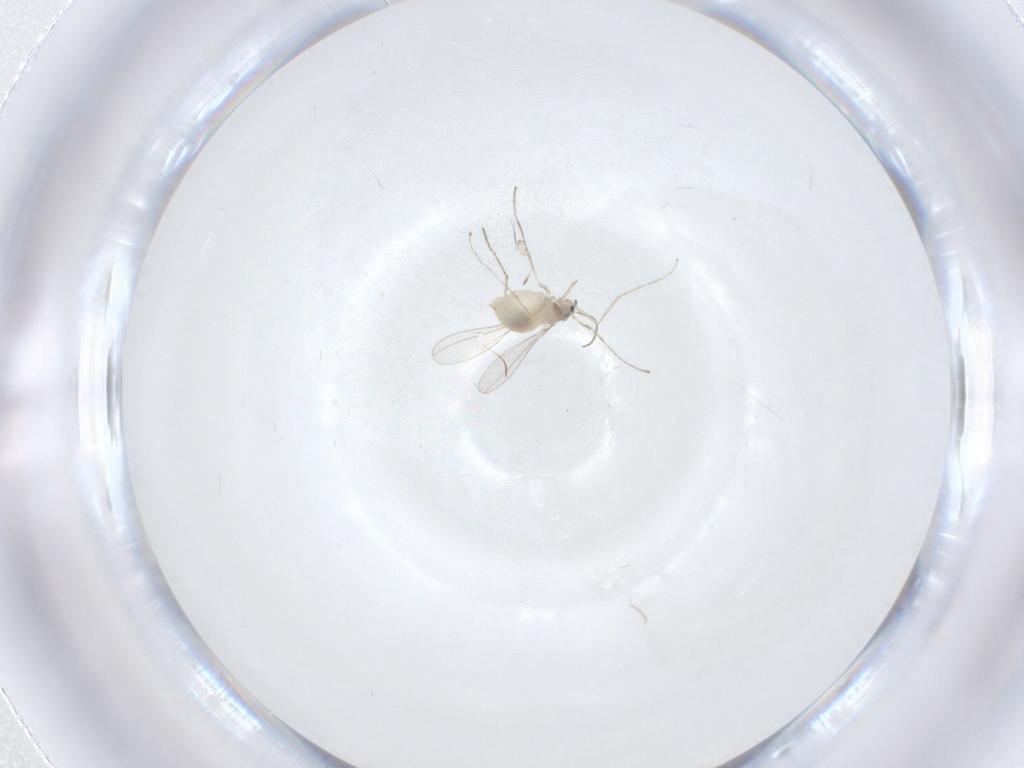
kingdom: Animalia
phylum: Arthropoda
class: Insecta
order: Diptera
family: Cecidomyiidae
